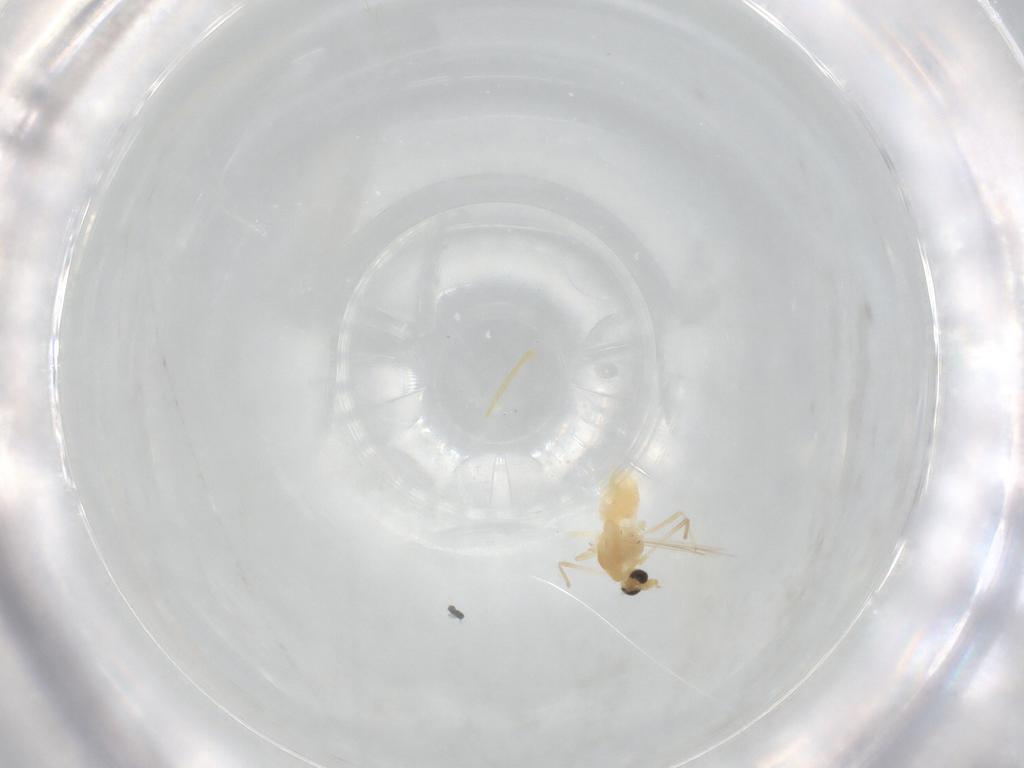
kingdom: Animalia
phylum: Arthropoda
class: Insecta
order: Diptera
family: Chironomidae
